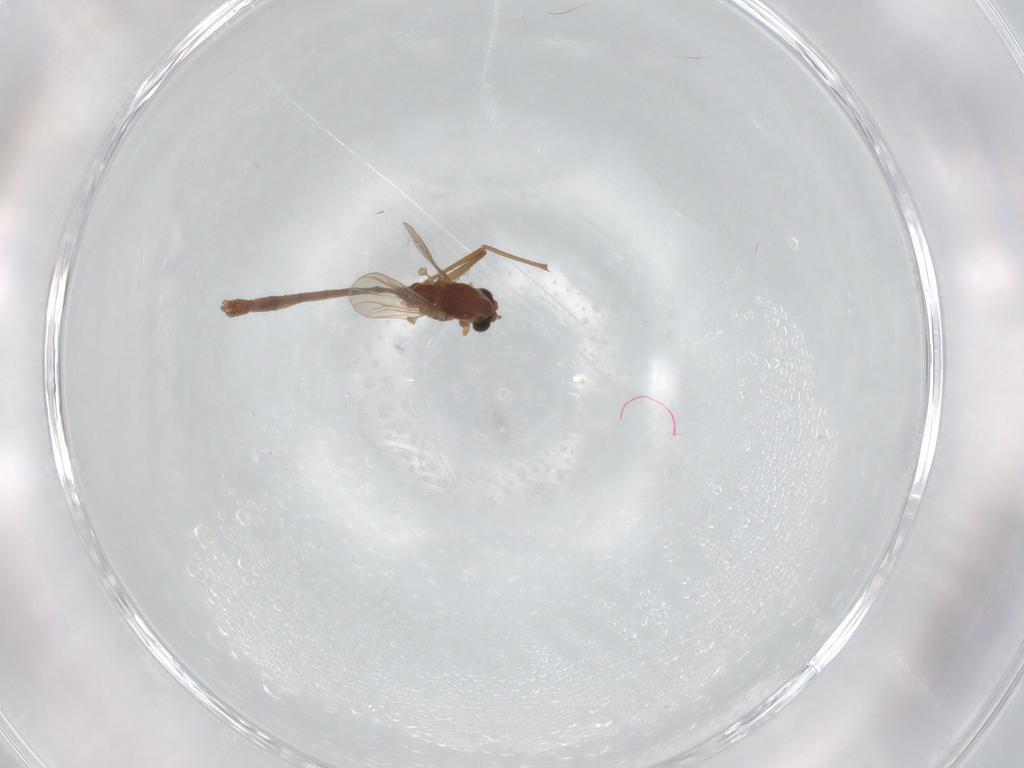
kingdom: Animalia
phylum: Arthropoda
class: Insecta
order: Diptera
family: Chironomidae
